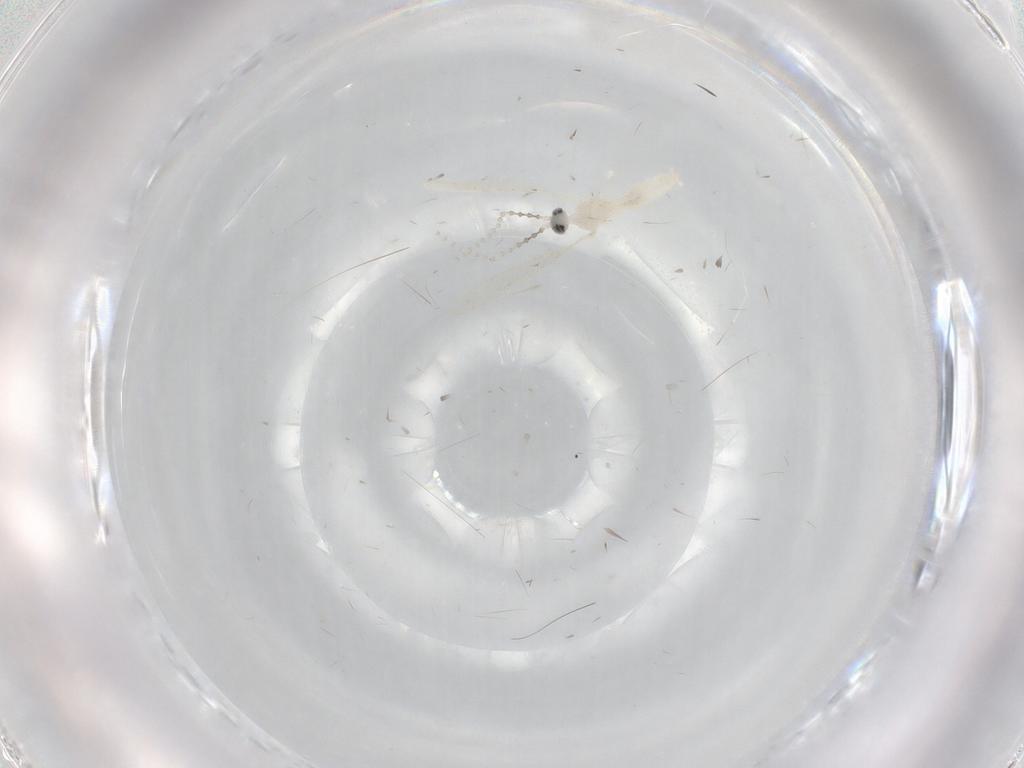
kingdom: Animalia
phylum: Arthropoda
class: Insecta
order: Diptera
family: Cecidomyiidae
